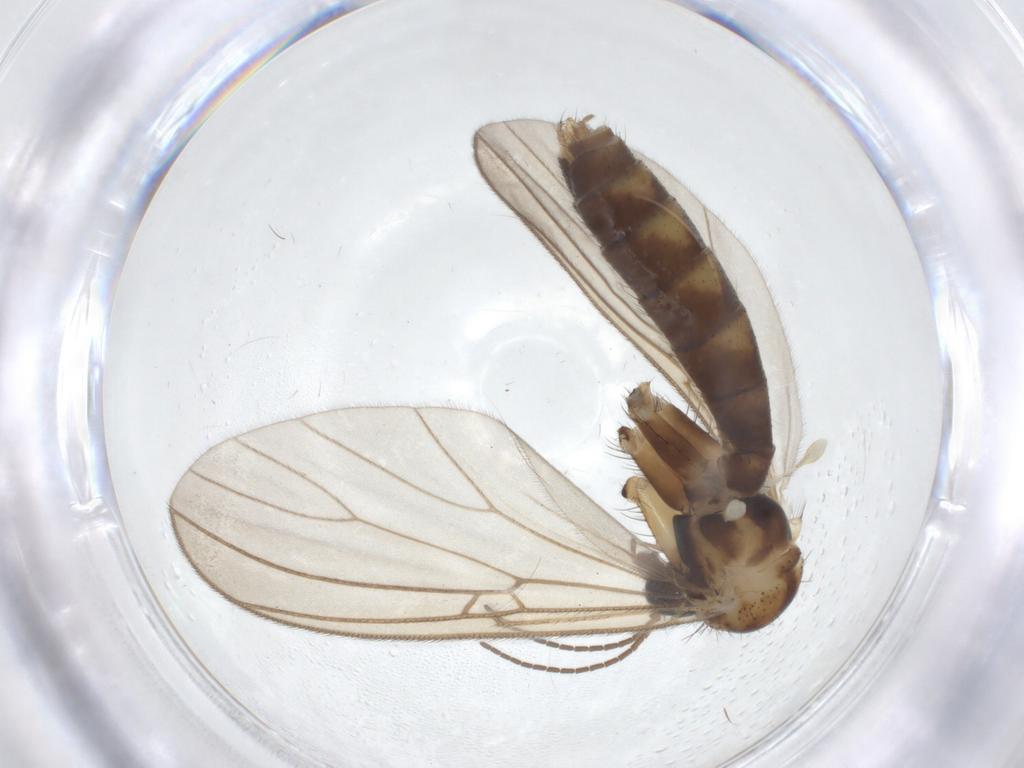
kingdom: Animalia
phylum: Arthropoda
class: Insecta
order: Diptera
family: Mycetophilidae
